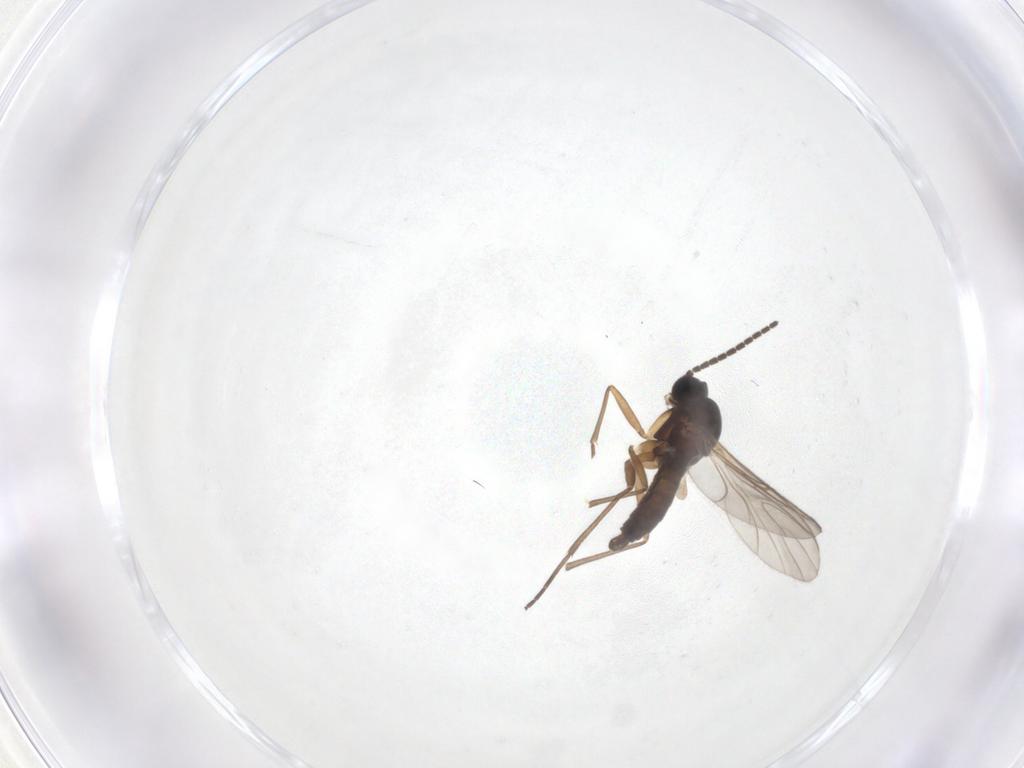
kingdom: Animalia
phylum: Arthropoda
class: Insecta
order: Diptera
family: Sciaridae
